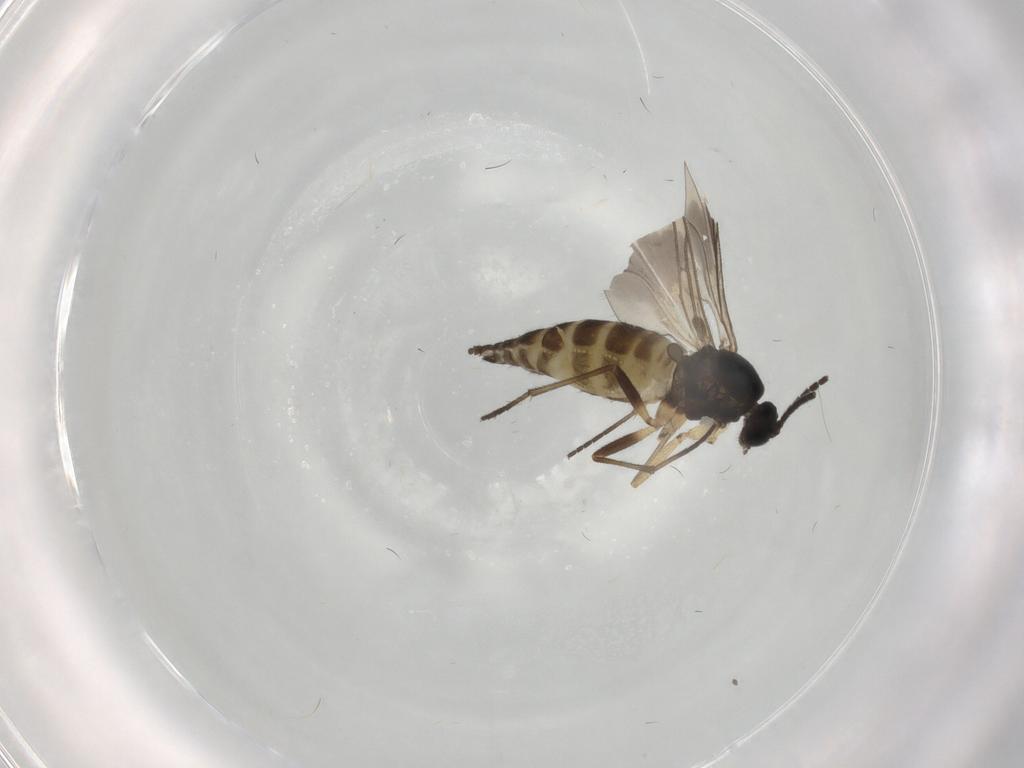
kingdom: Animalia
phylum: Arthropoda
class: Insecta
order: Diptera
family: Sciaridae
